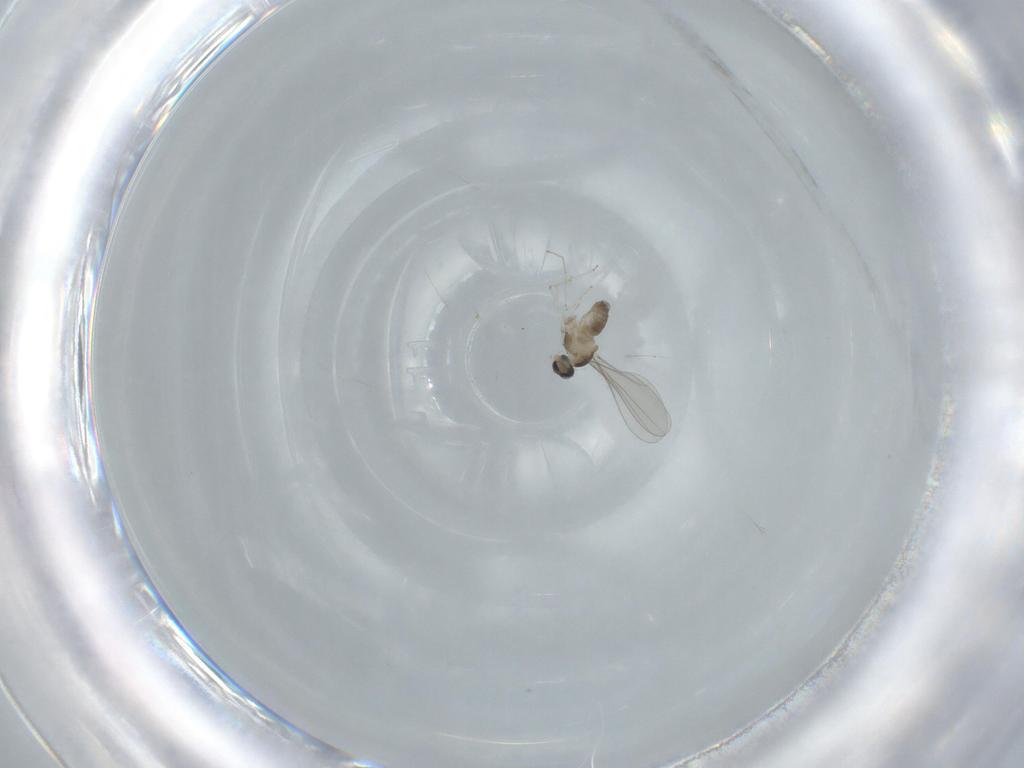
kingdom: Animalia
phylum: Arthropoda
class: Insecta
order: Diptera
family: Cecidomyiidae
